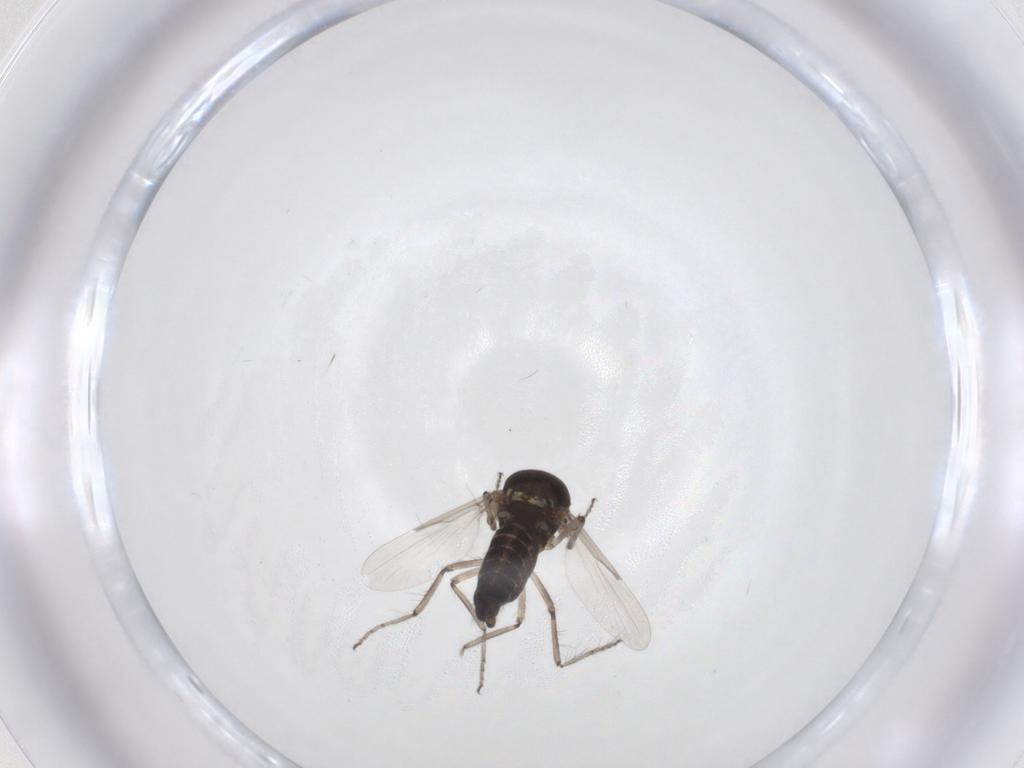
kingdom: Animalia
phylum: Arthropoda
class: Insecta
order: Diptera
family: Ceratopogonidae
